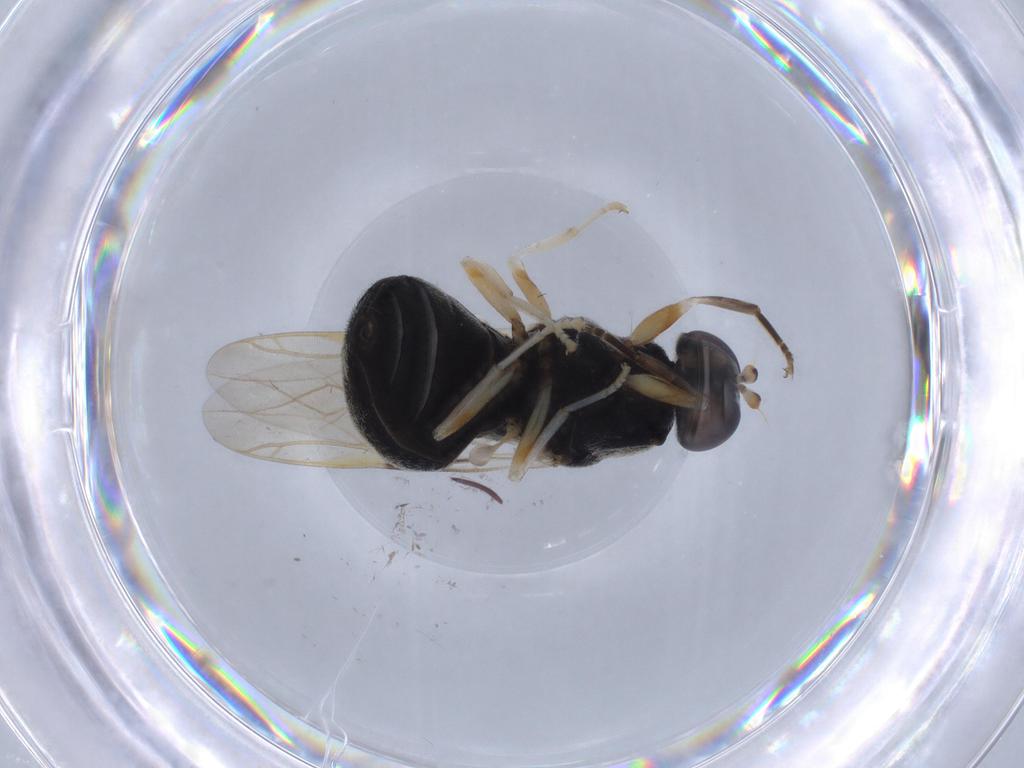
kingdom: Animalia
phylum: Arthropoda
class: Insecta
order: Diptera
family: Stratiomyidae
